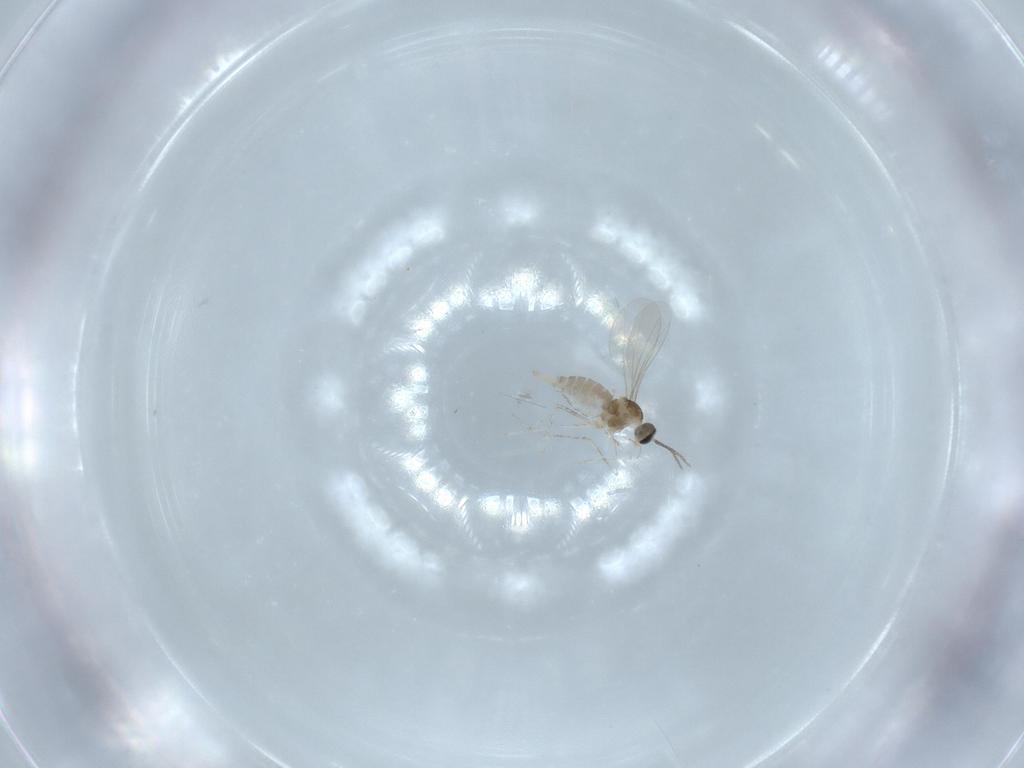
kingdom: Animalia
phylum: Arthropoda
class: Insecta
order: Diptera
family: Cecidomyiidae
